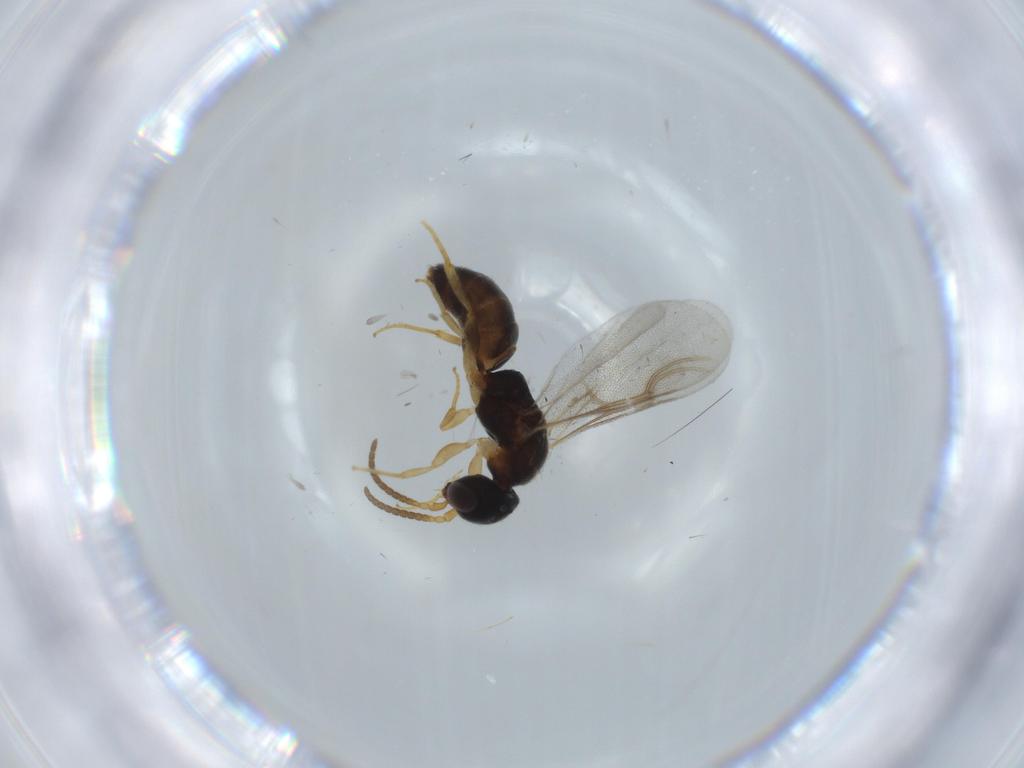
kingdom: Animalia
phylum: Arthropoda
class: Insecta
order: Hymenoptera
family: Bethylidae
